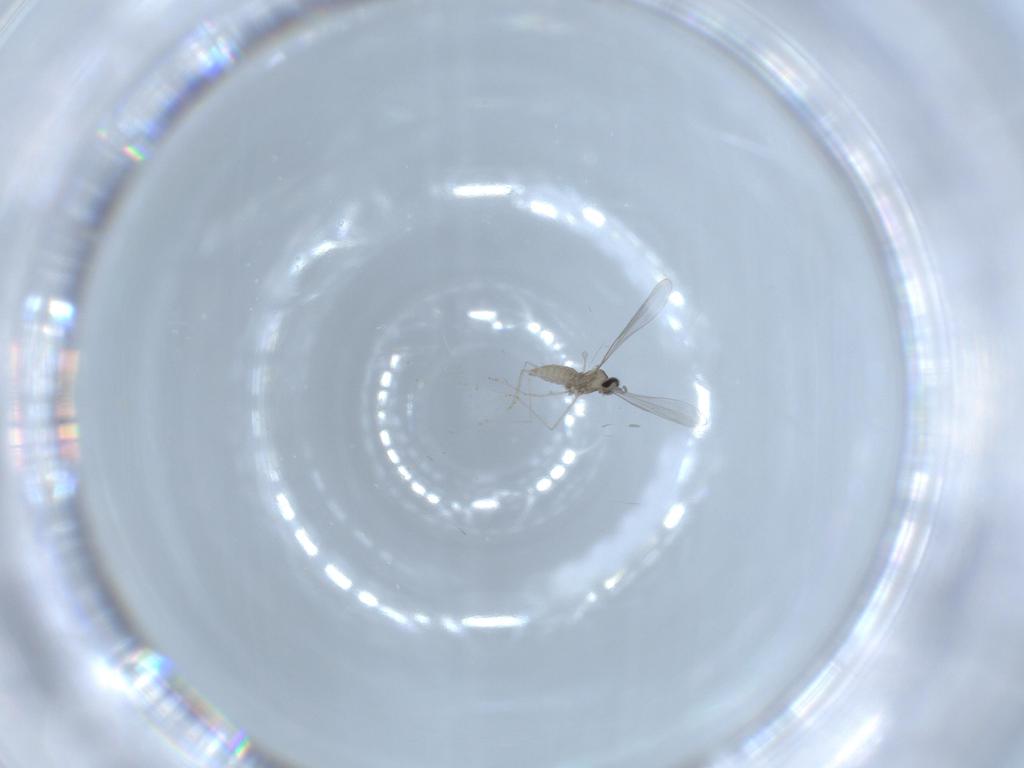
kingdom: Animalia
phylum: Arthropoda
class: Insecta
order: Diptera
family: Cecidomyiidae
